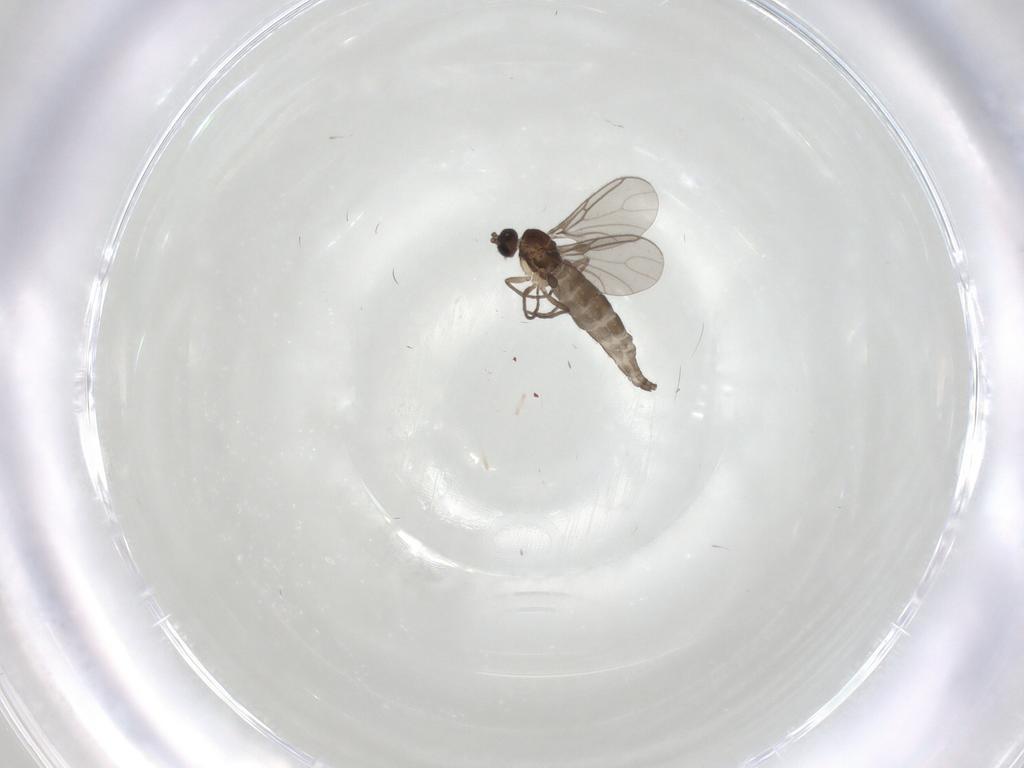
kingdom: Animalia
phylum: Arthropoda
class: Insecta
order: Diptera
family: Sciaridae
